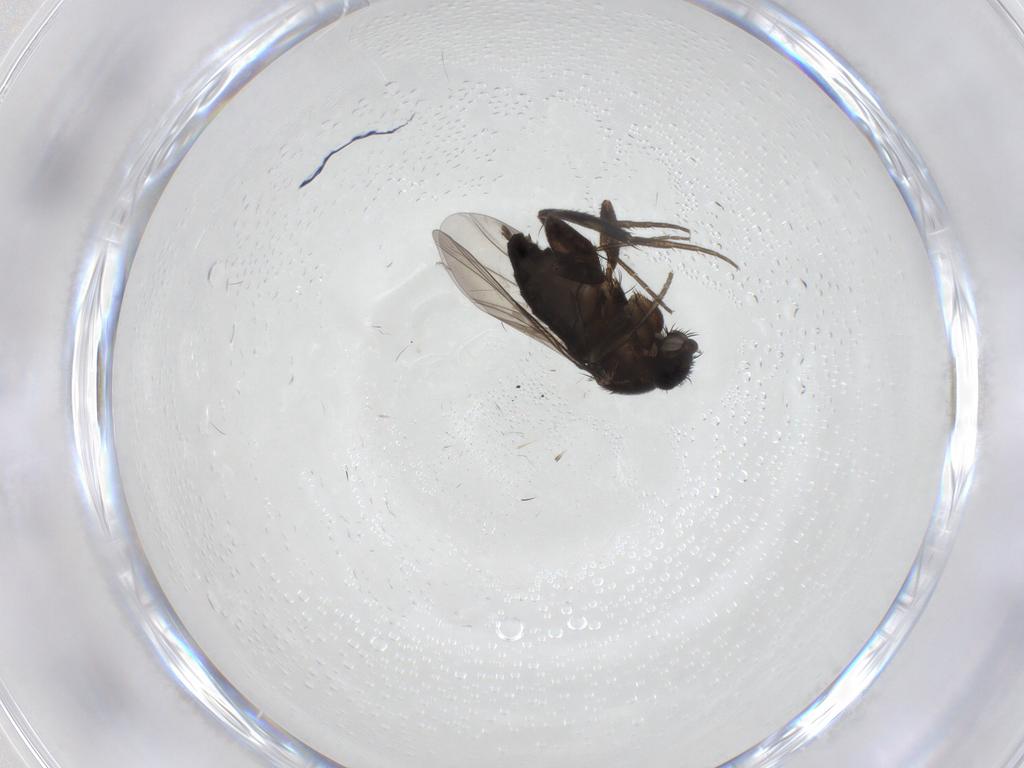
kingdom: Animalia
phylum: Arthropoda
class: Insecta
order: Diptera
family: Phoridae
